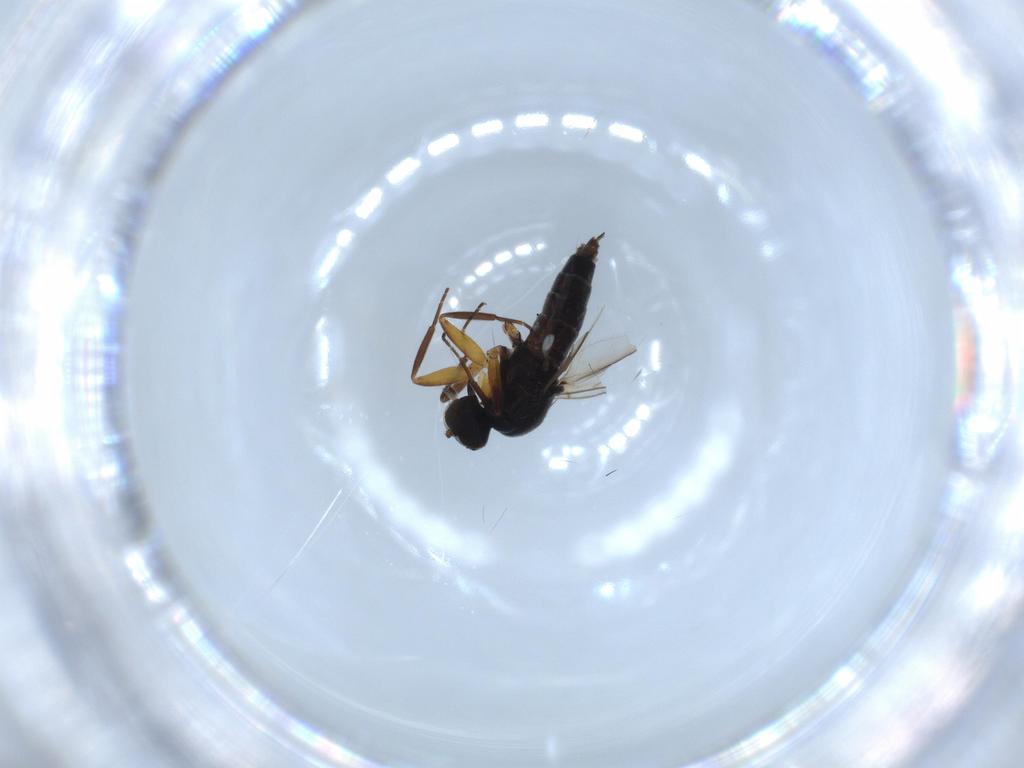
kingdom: Animalia
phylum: Arthropoda
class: Insecta
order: Diptera
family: Hybotidae
